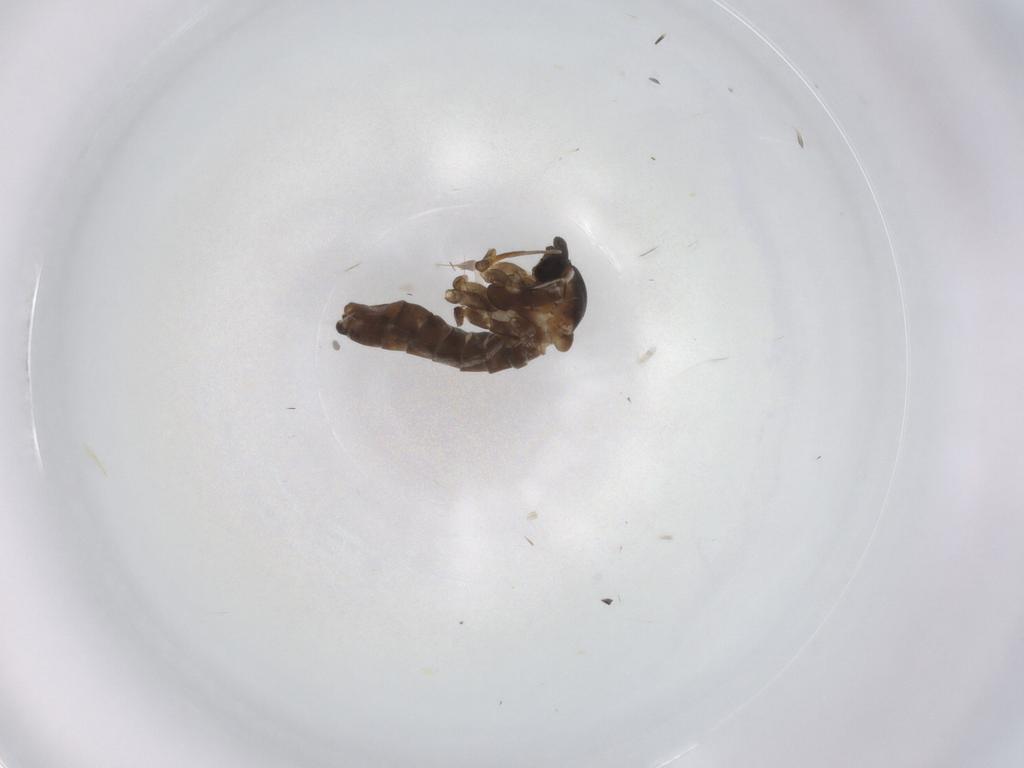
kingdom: Animalia
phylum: Arthropoda
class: Insecta
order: Diptera
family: Cecidomyiidae
